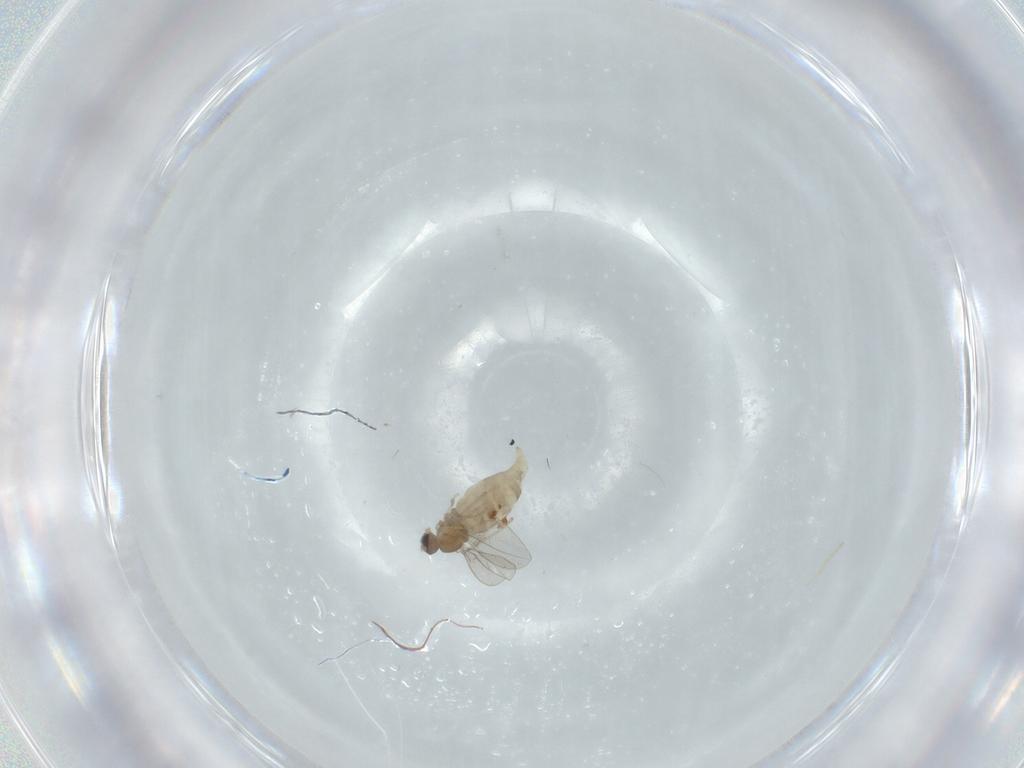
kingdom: Animalia
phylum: Arthropoda
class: Insecta
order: Diptera
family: Cecidomyiidae
